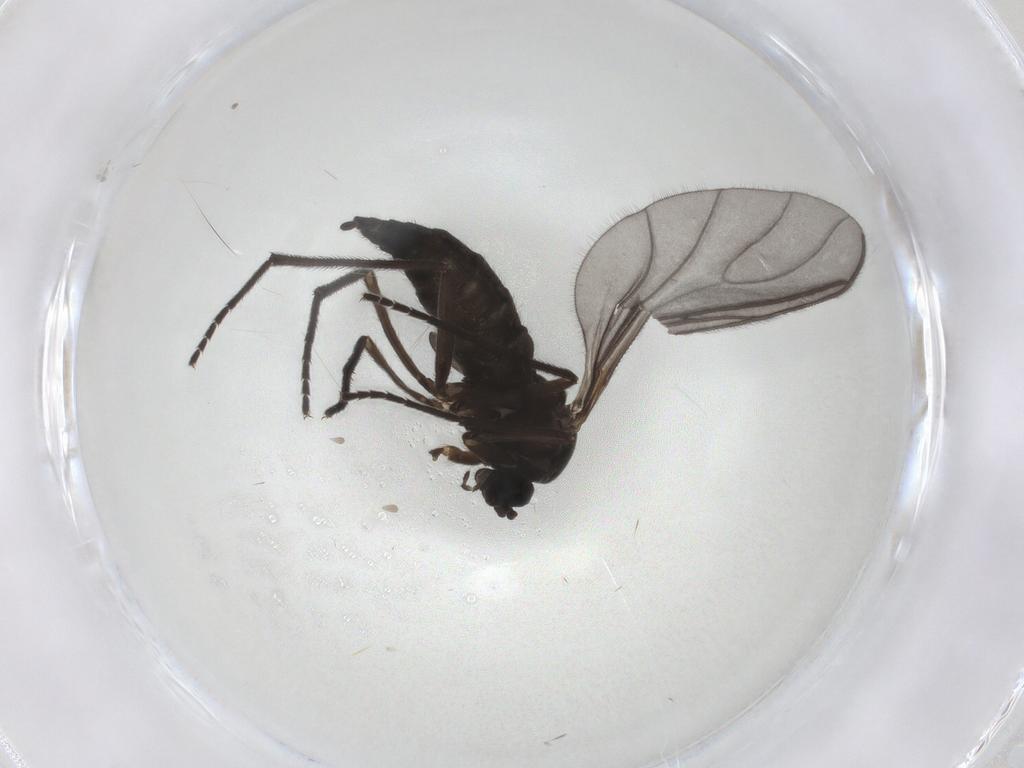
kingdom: Animalia
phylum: Arthropoda
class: Insecta
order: Diptera
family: Sciaridae
